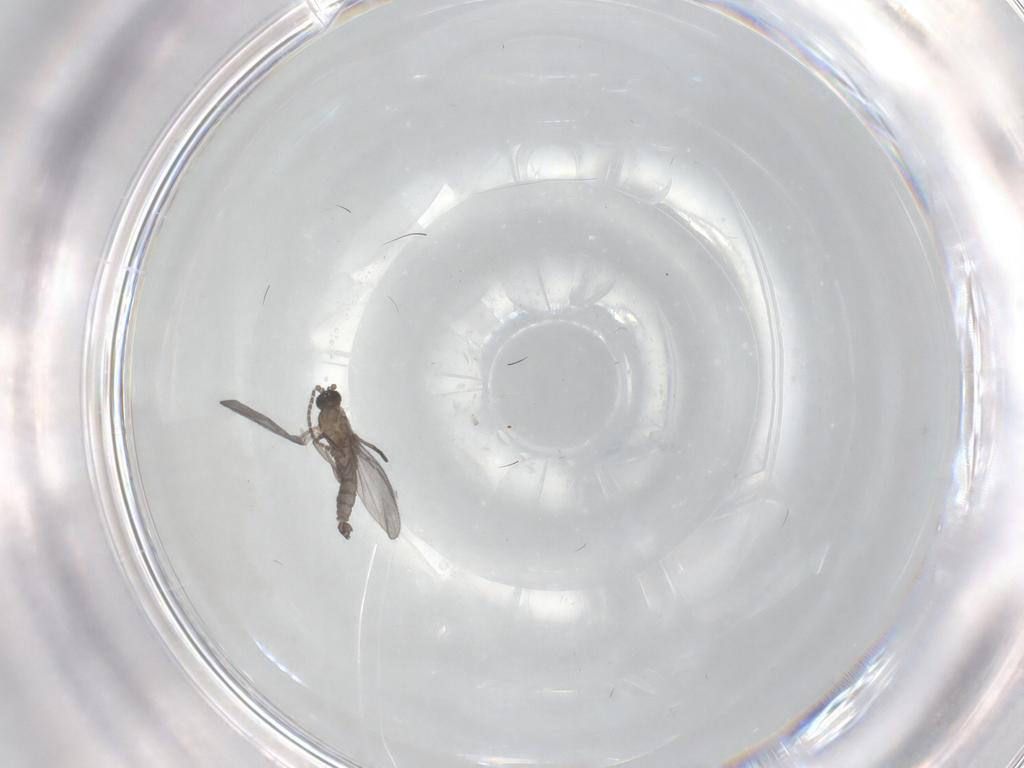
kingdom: Animalia
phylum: Arthropoda
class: Insecta
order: Diptera
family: Sciaridae
